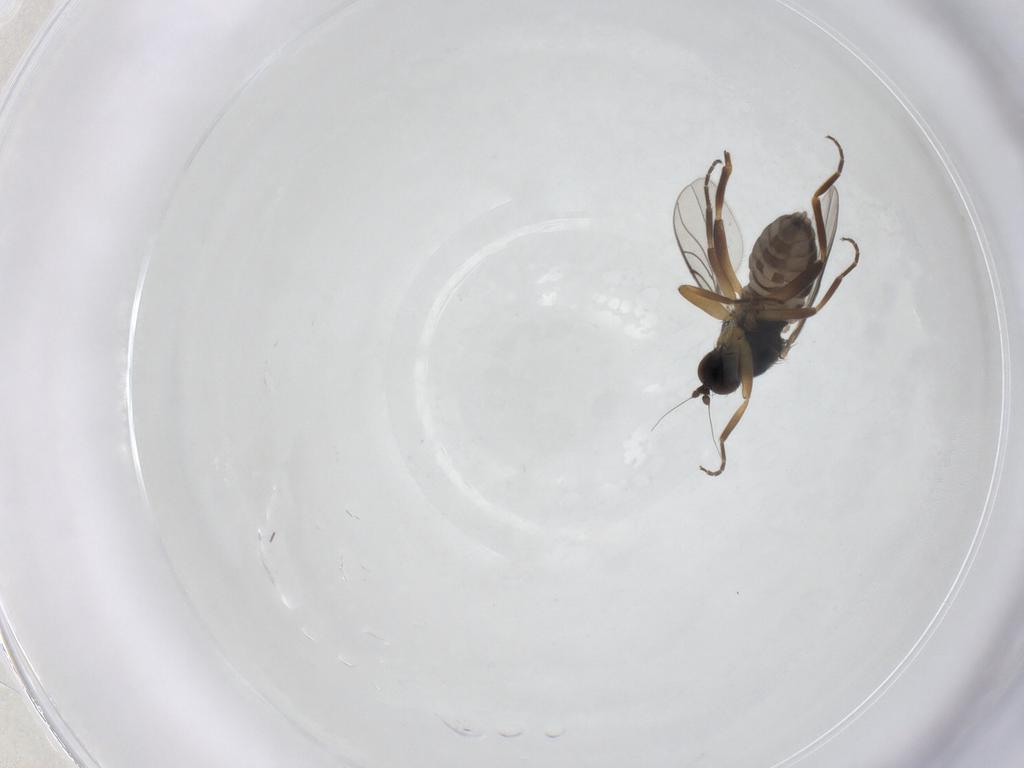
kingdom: Animalia
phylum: Arthropoda
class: Insecta
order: Diptera
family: Hybotidae
